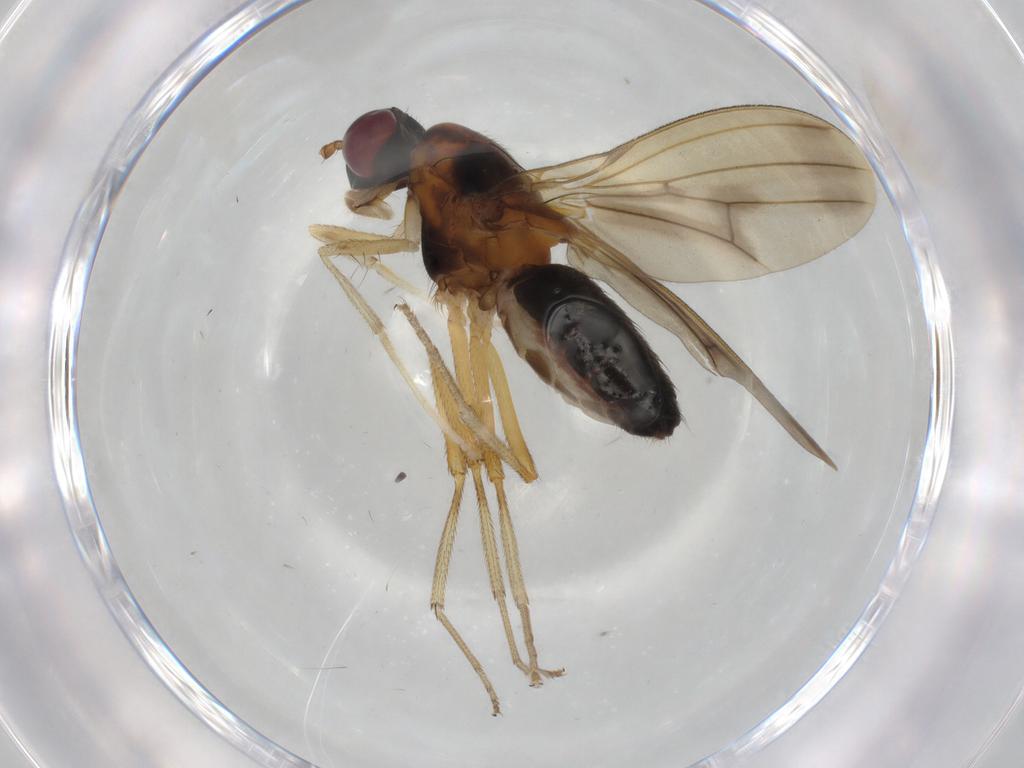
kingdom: Animalia
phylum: Arthropoda
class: Insecta
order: Diptera
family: Lauxaniidae
